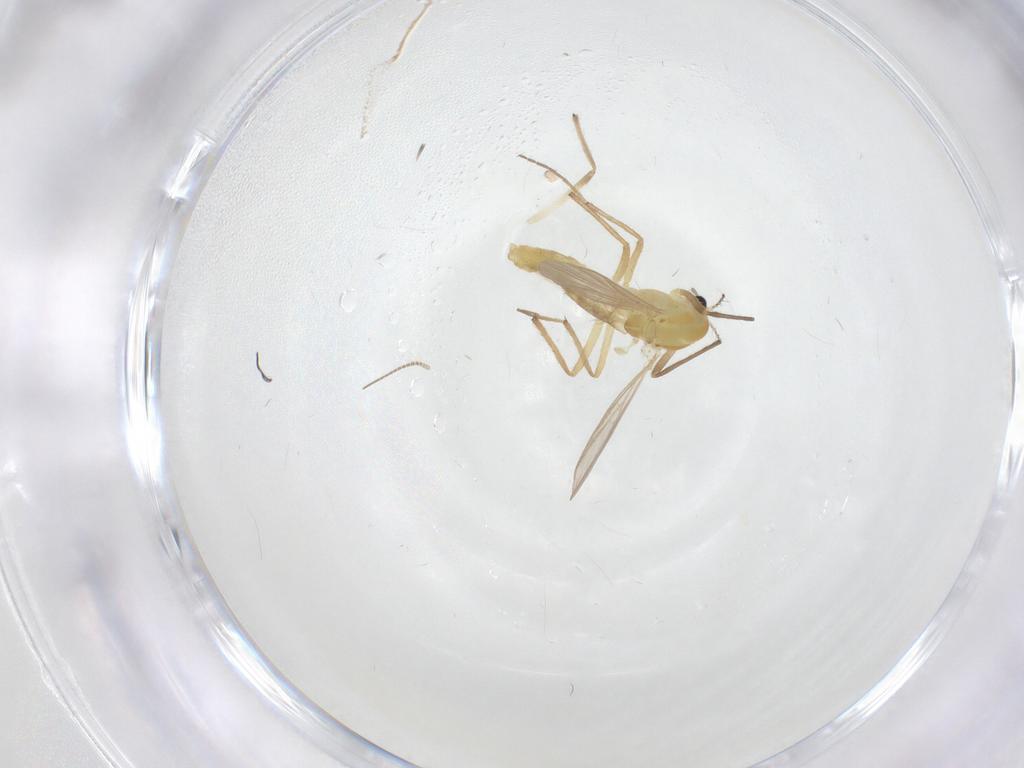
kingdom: Animalia
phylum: Arthropoda
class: Insecta
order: Diptera
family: Chironomidae
